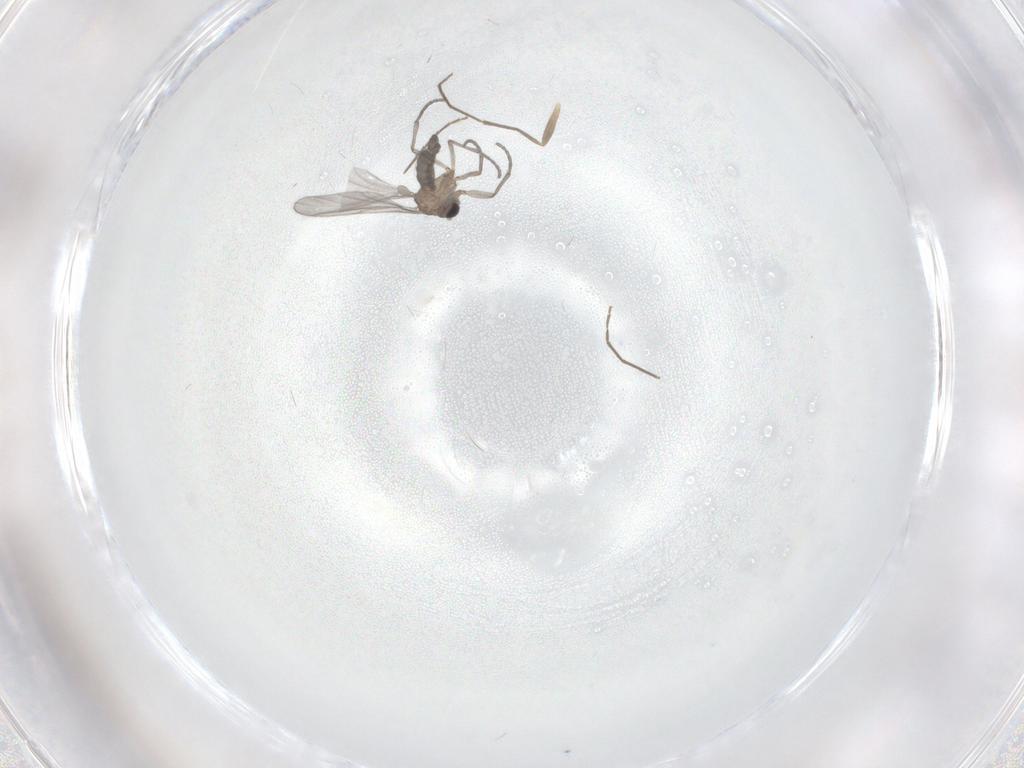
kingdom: Animalia
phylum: Arthropoda
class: Insecta
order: Diptera
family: Sciaridae
